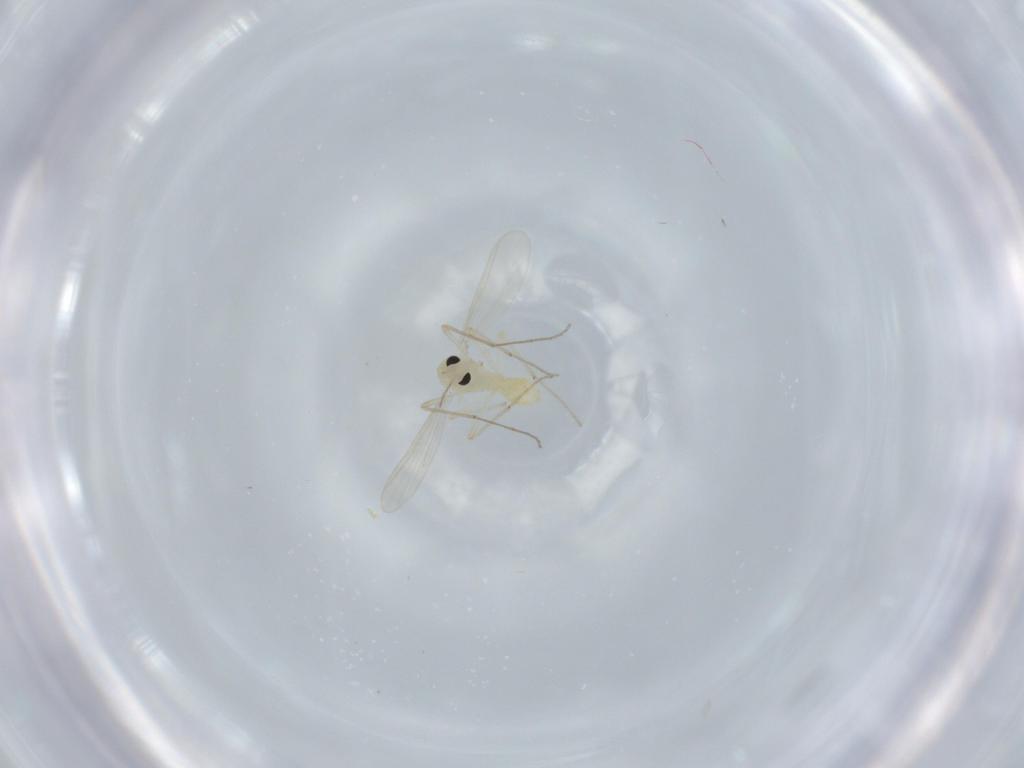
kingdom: Animalia
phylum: Arthropoda
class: Insecta
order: Diptera
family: Chironomidae
